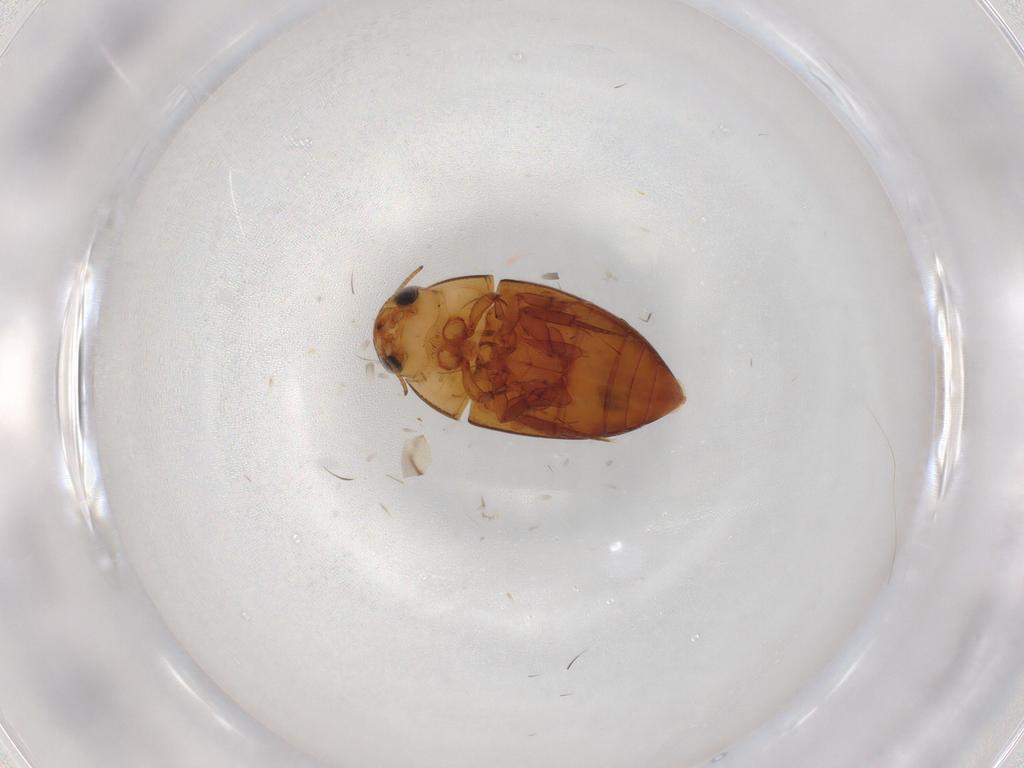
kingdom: Animalia
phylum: Arthropoda
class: Insecta
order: Coleoptera
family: Noteridae
